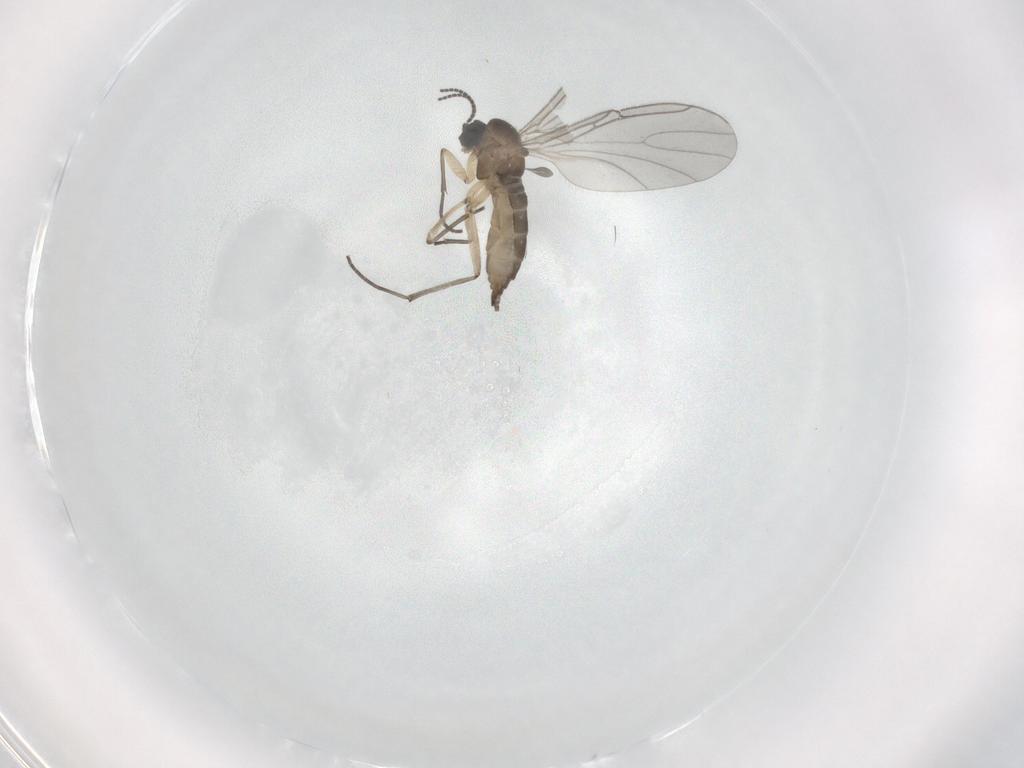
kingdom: Animalia
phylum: Arthropoda
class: Insecta
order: Diptera
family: Sciaridae
